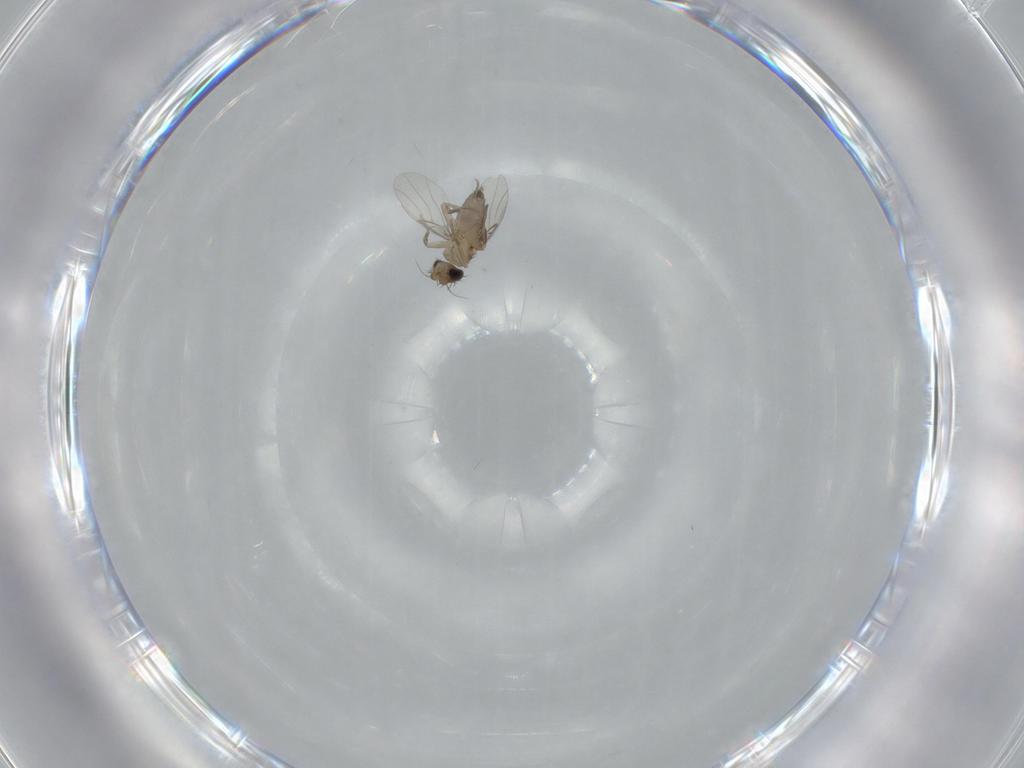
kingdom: Animalia
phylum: Arthropoda
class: Insecta
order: Diptera
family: Phoridae
